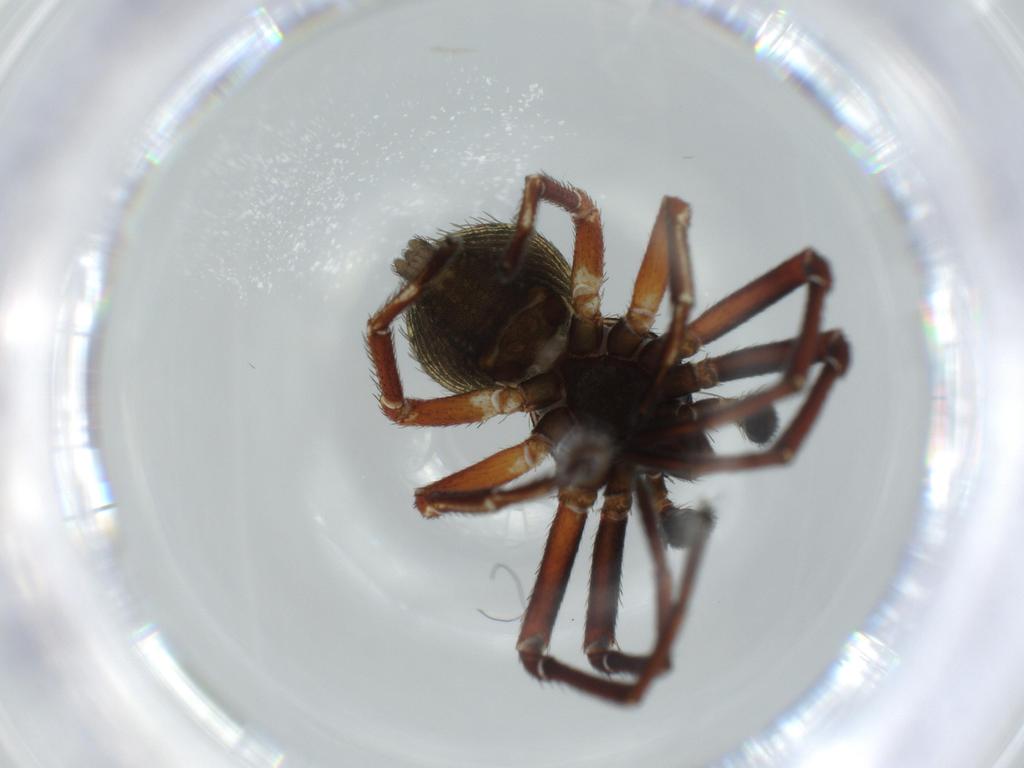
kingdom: Animalia
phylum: Arthropoda
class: Arachnida
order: Araneae
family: Thomisidae
